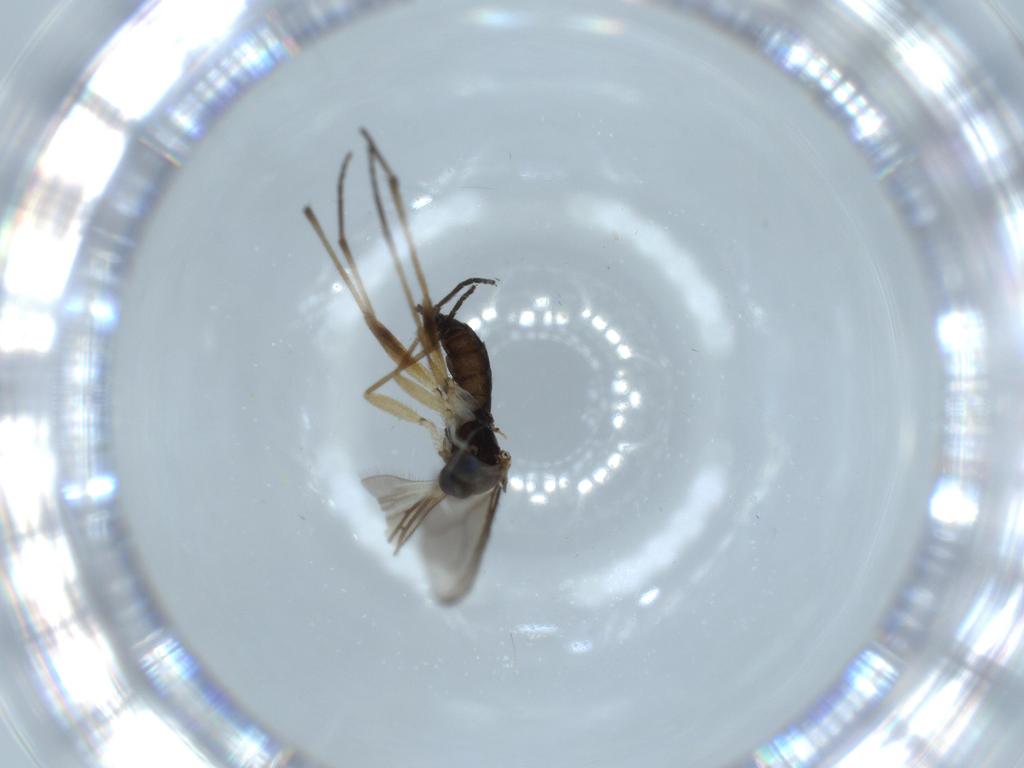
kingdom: Animalia
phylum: Arthropoda
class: Insecta
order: Diptera
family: Sciaridae
